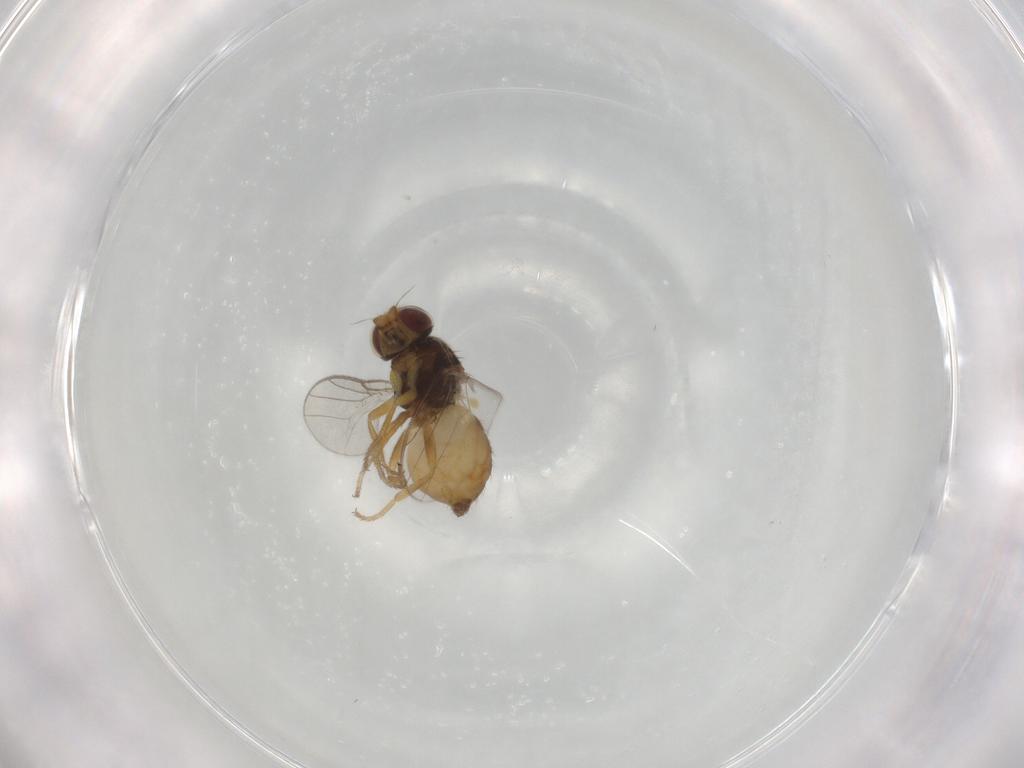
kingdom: Animalia
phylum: Arthropoda
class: Insecta
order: Diptera
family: Chloropidae
